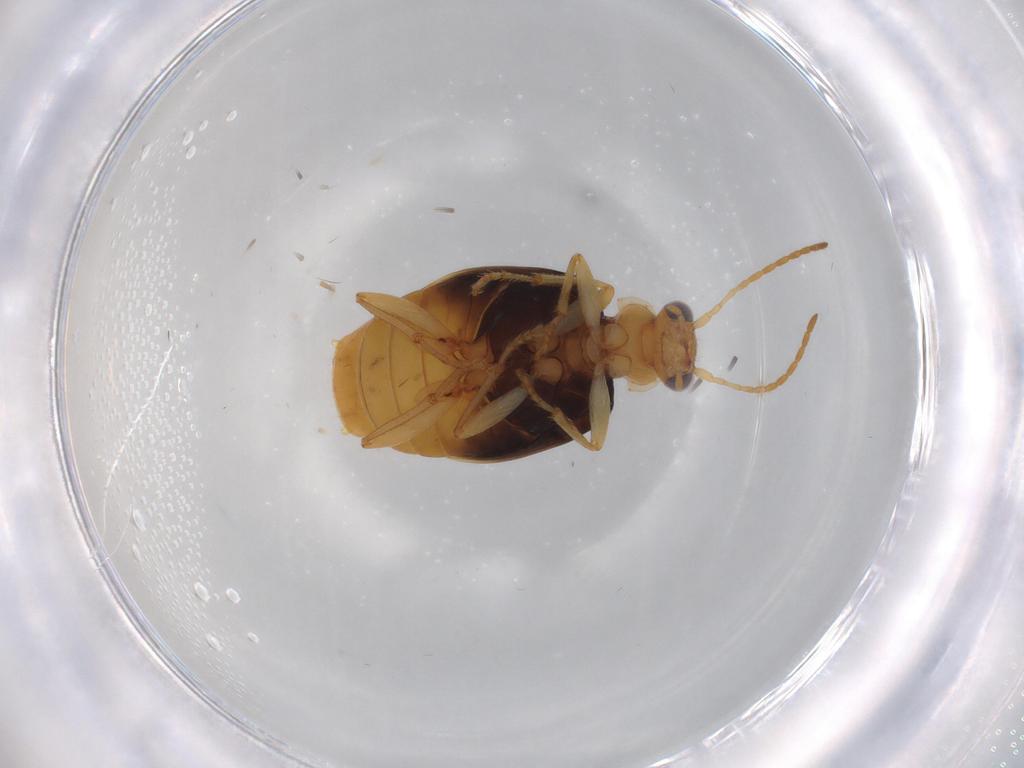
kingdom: Animalia
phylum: Arthropoda
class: Insecta
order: Coleoptera
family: Carabidae
